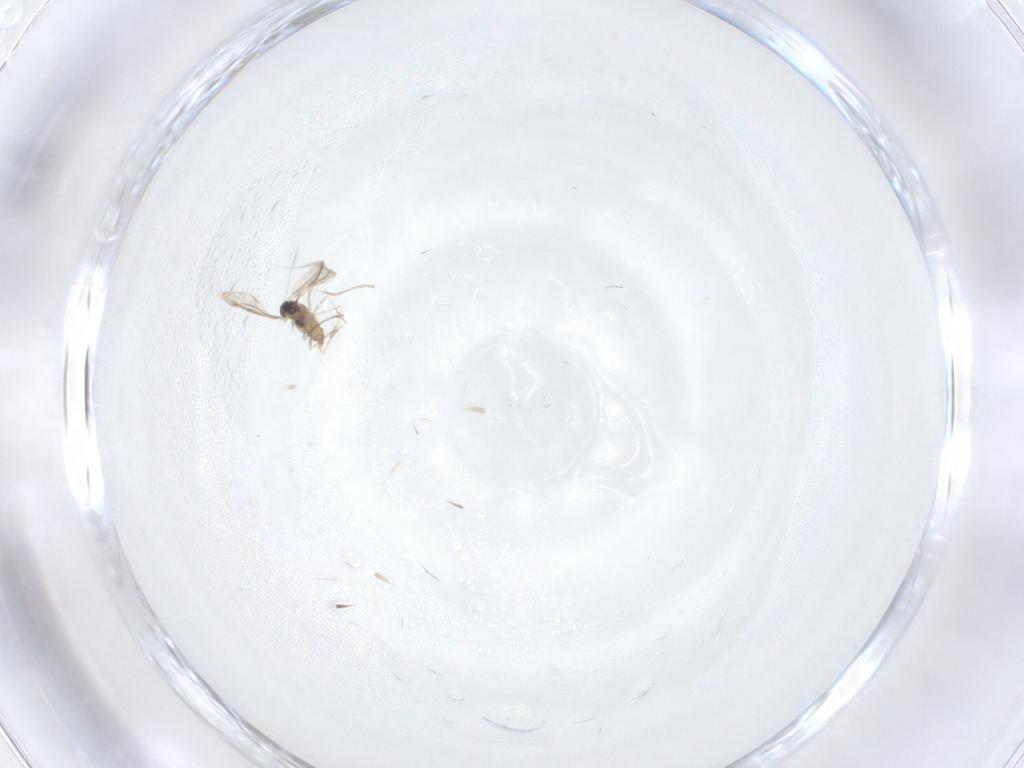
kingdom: Animalia
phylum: Arthropoda
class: Insecta
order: Diptera
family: Cecidomyiidae
